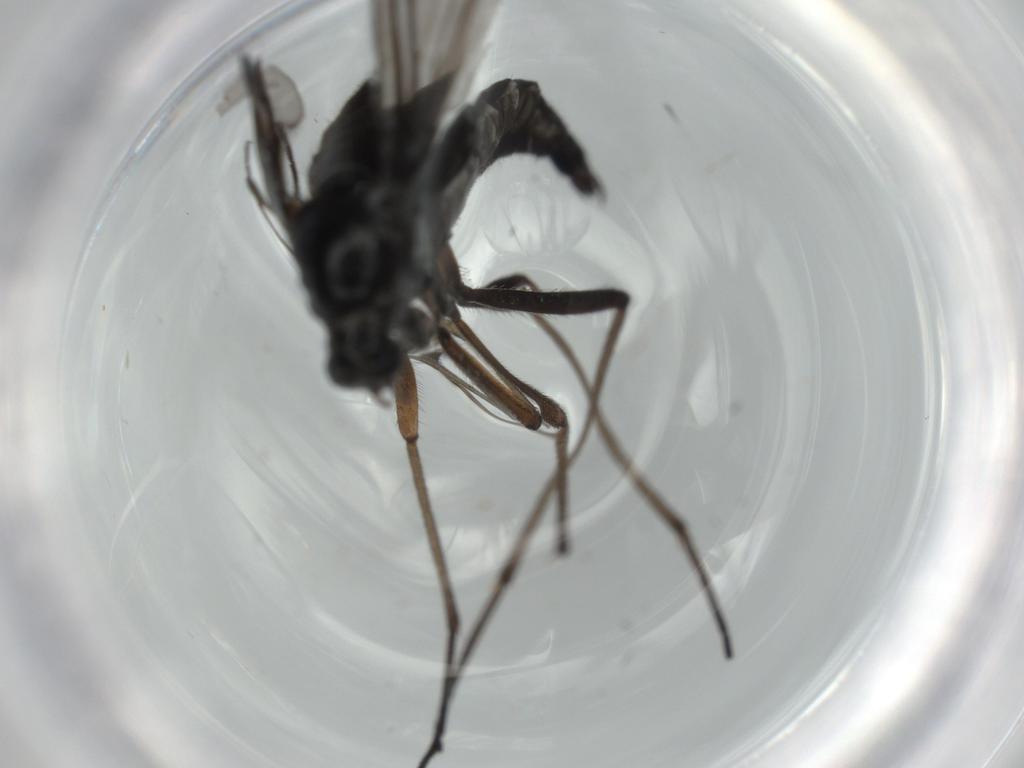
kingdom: Animalia
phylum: Arthropoda
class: Insecta
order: Diptera
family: Sciaridae
